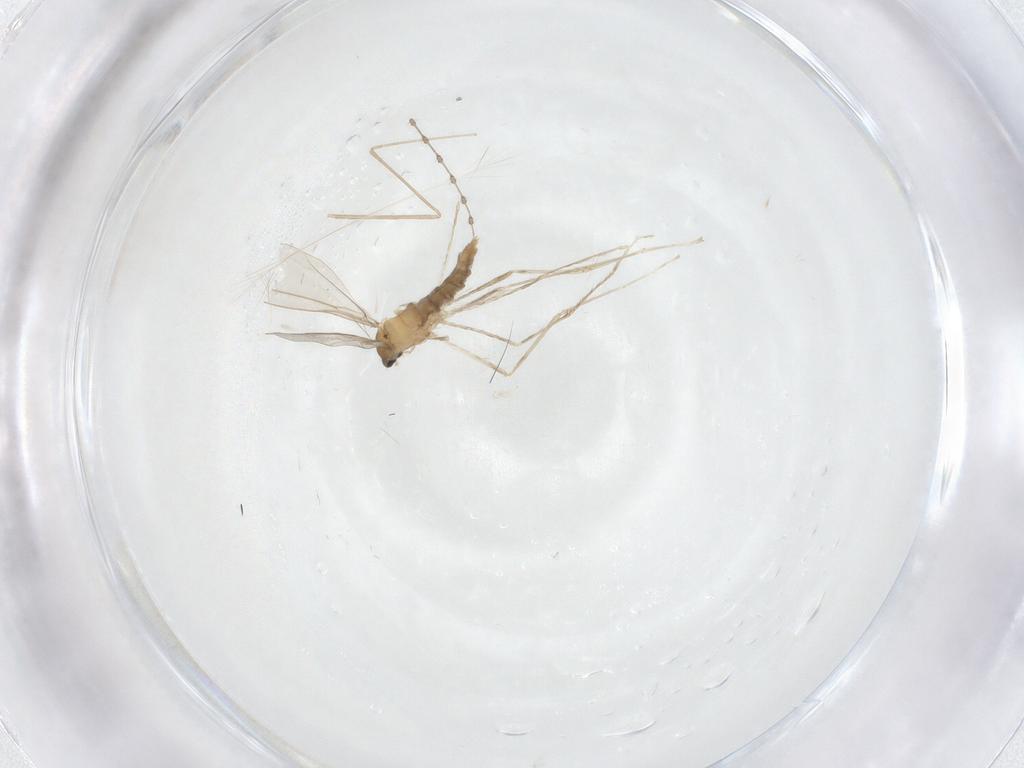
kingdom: Animalia
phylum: Arthropoda
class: Insecta
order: Diptera
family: Cecidomyiidae
